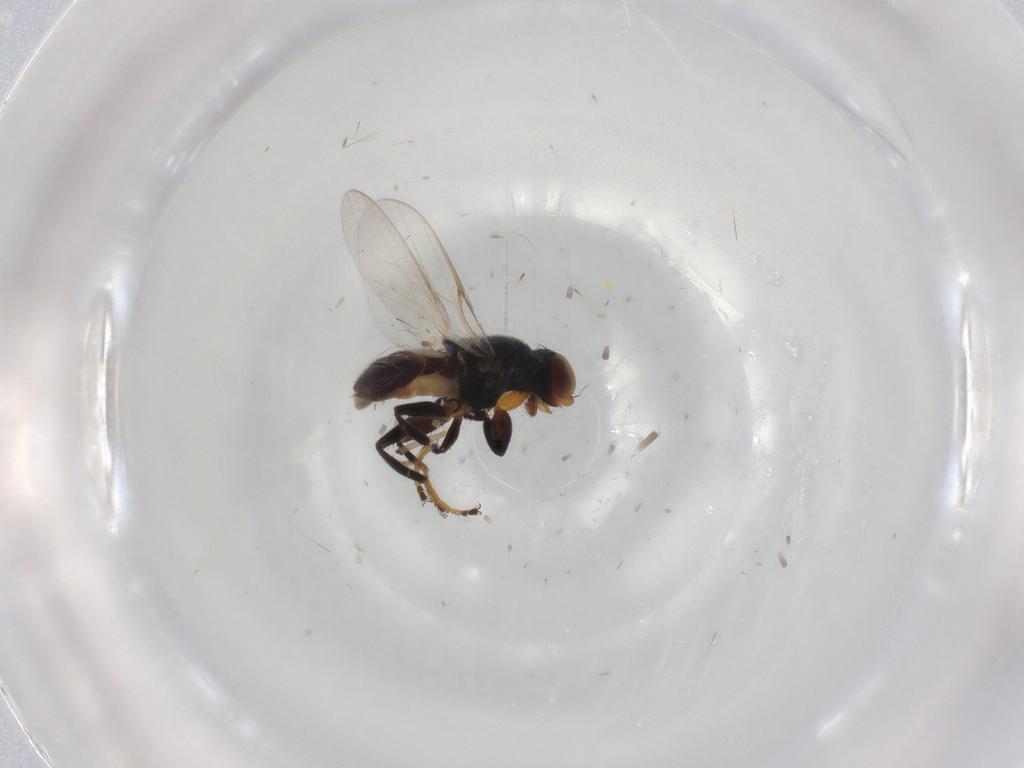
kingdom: Animalia
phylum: Arthropoda
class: Insecta
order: Diptera
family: Chloropidae
